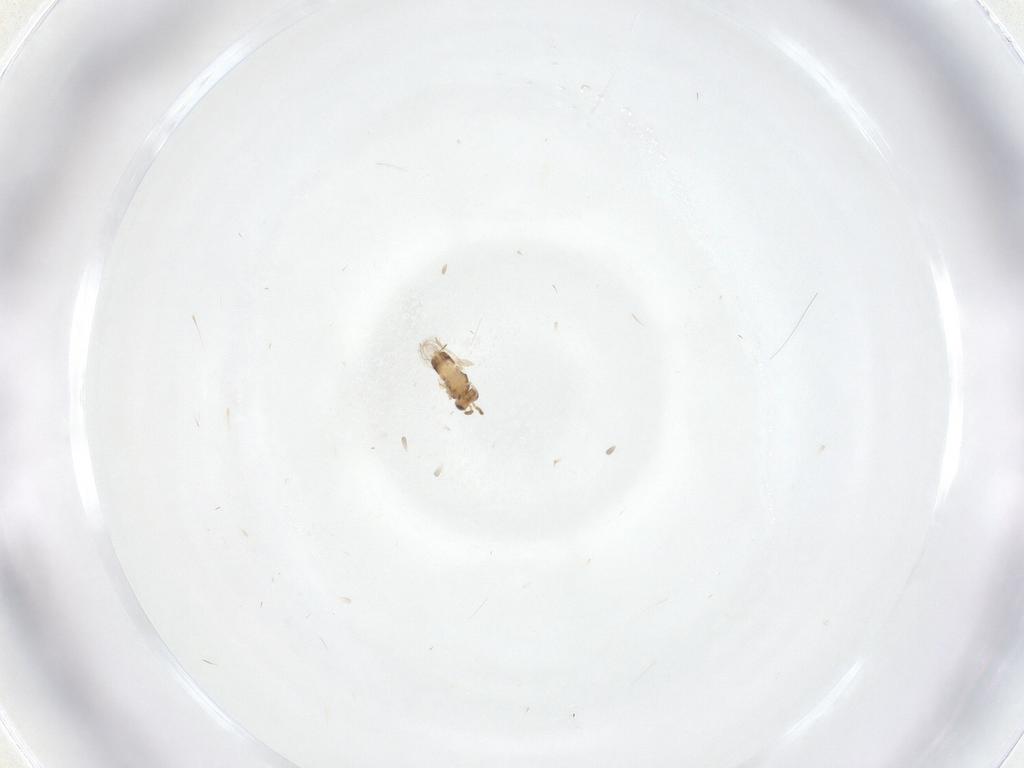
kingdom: Animalia
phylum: Arthropoda
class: Insecta
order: Hymenoptera
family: Aphelinidae
